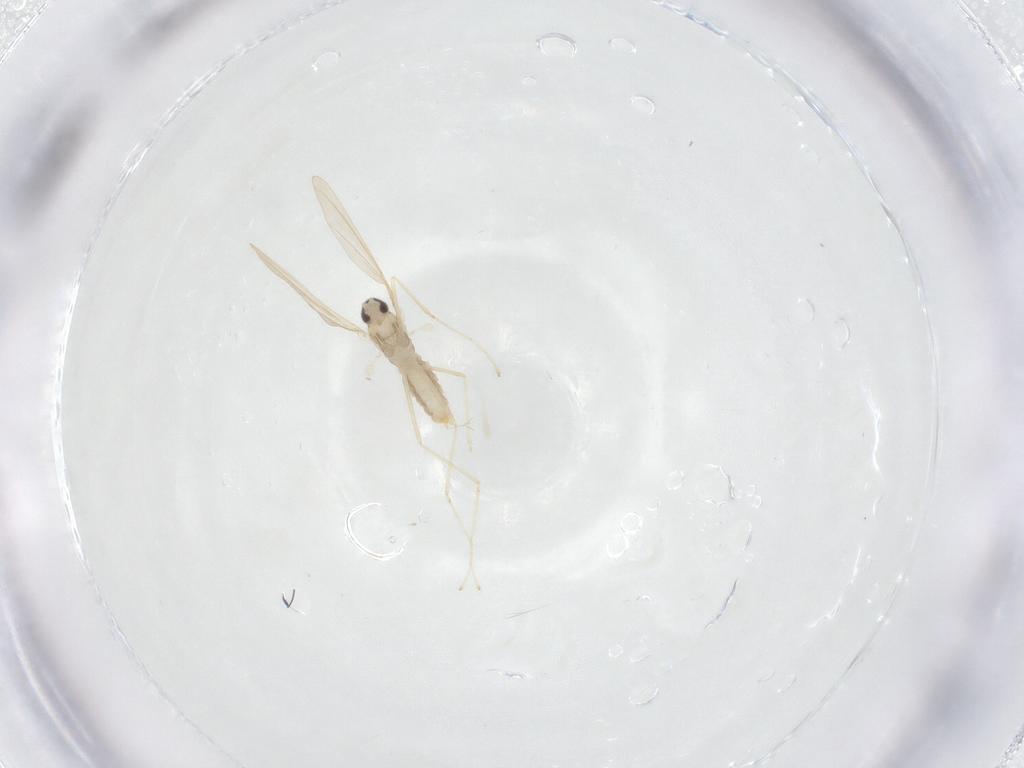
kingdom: Animalia
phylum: Arthropoda
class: Insecta
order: Diptera
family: Cecidomyiidae
